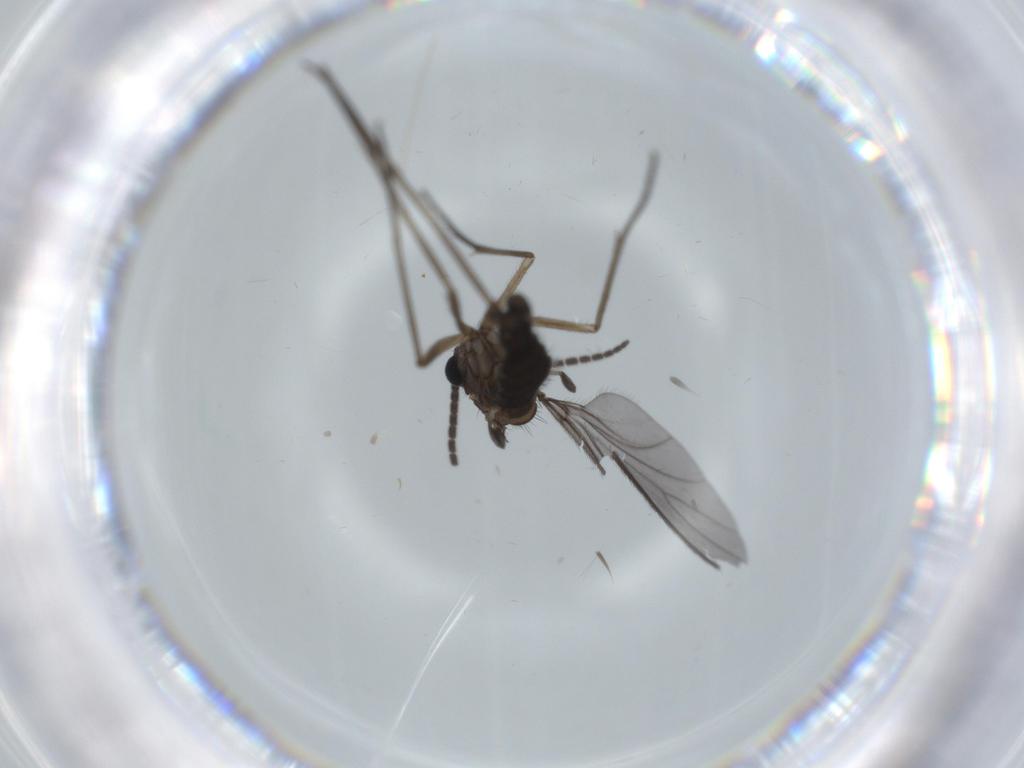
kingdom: Animalia
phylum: Arthropoda
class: Insecta
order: Diptera
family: Sciaridae
